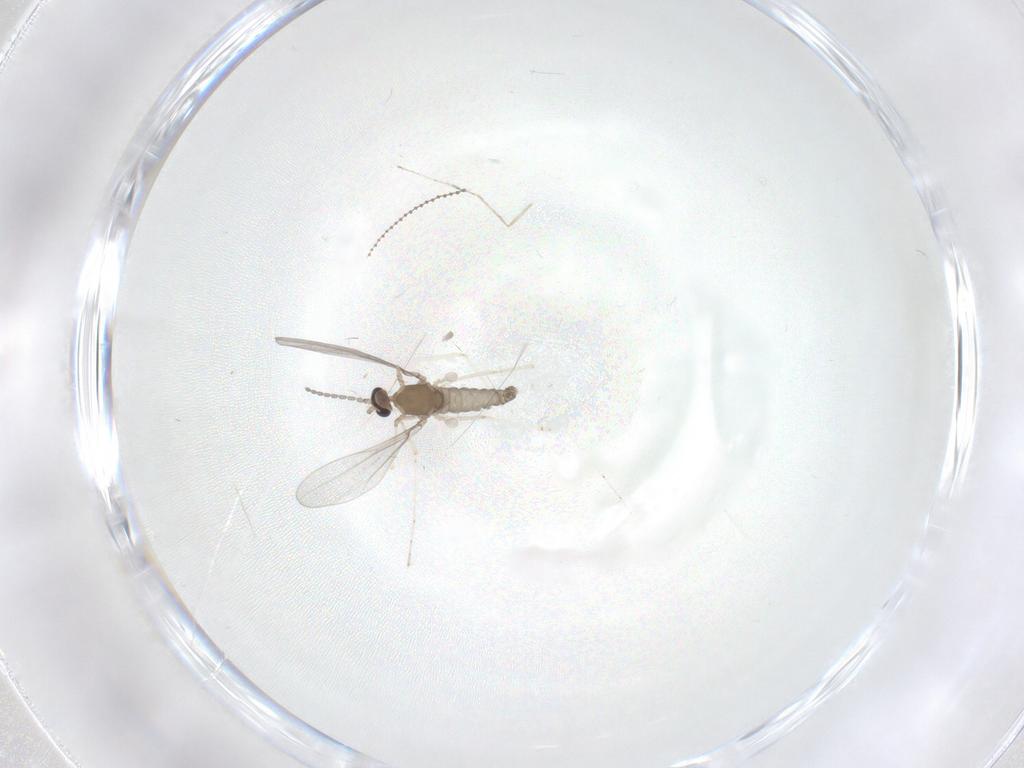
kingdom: Animalia
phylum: Arthropoda
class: Insecta
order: Diptera
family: Cecidomyiidae
